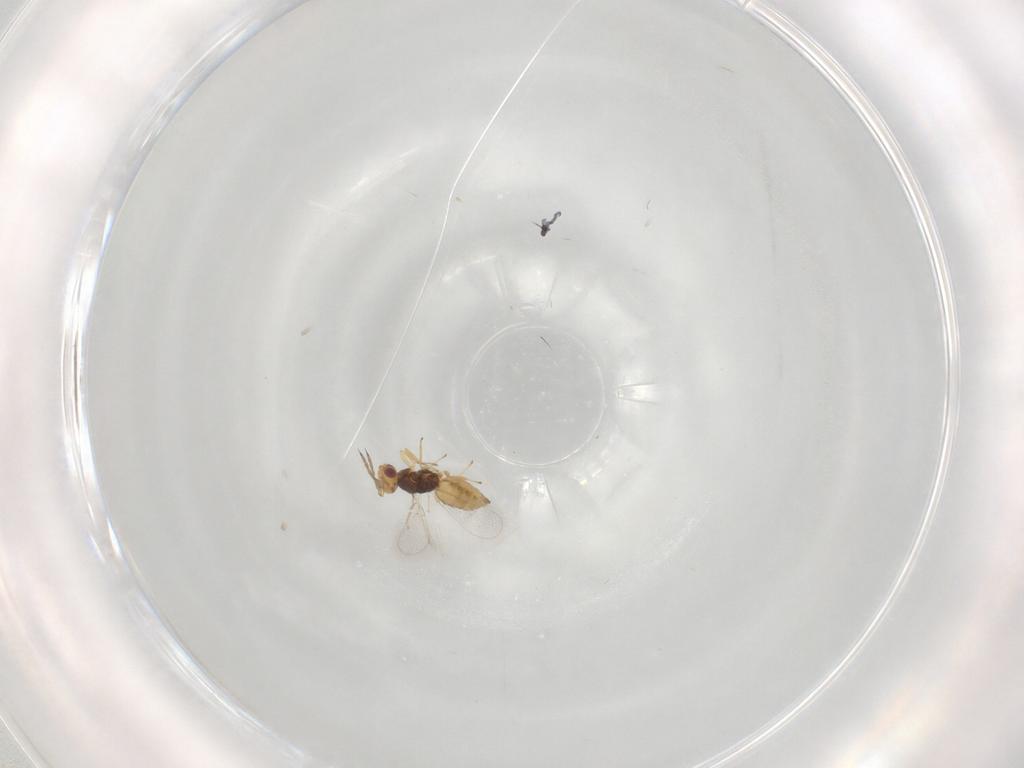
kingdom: Animalia
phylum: Arthropoda
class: Insecta
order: Hymenoptera
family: Eulophidae
